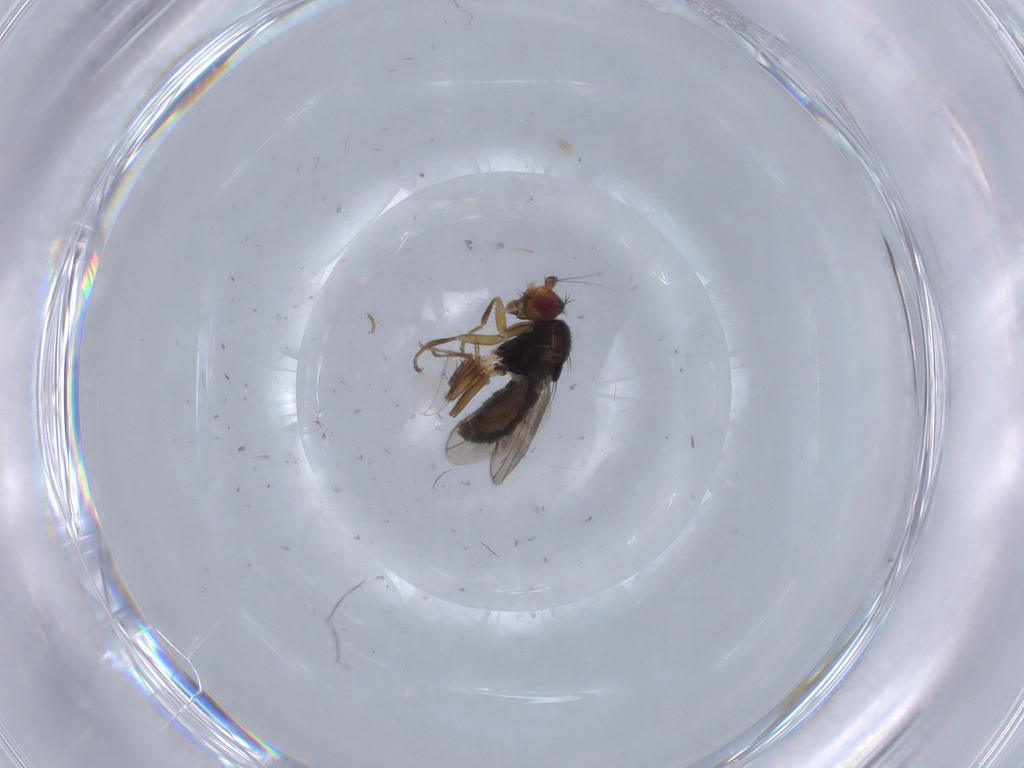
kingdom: Animalia
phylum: Arthropoda
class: Insecta
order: Diptera
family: Sphaeroceridae
